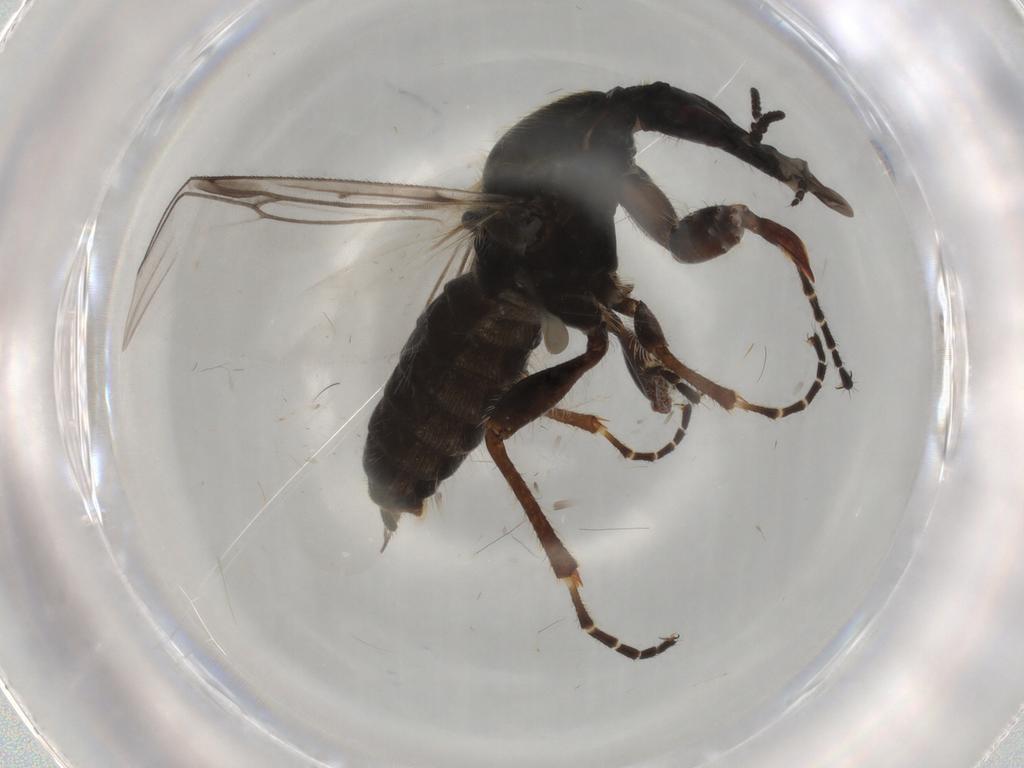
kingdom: Animalia
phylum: Arthropoda
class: Insecta
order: Diptera
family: Bibionidae
